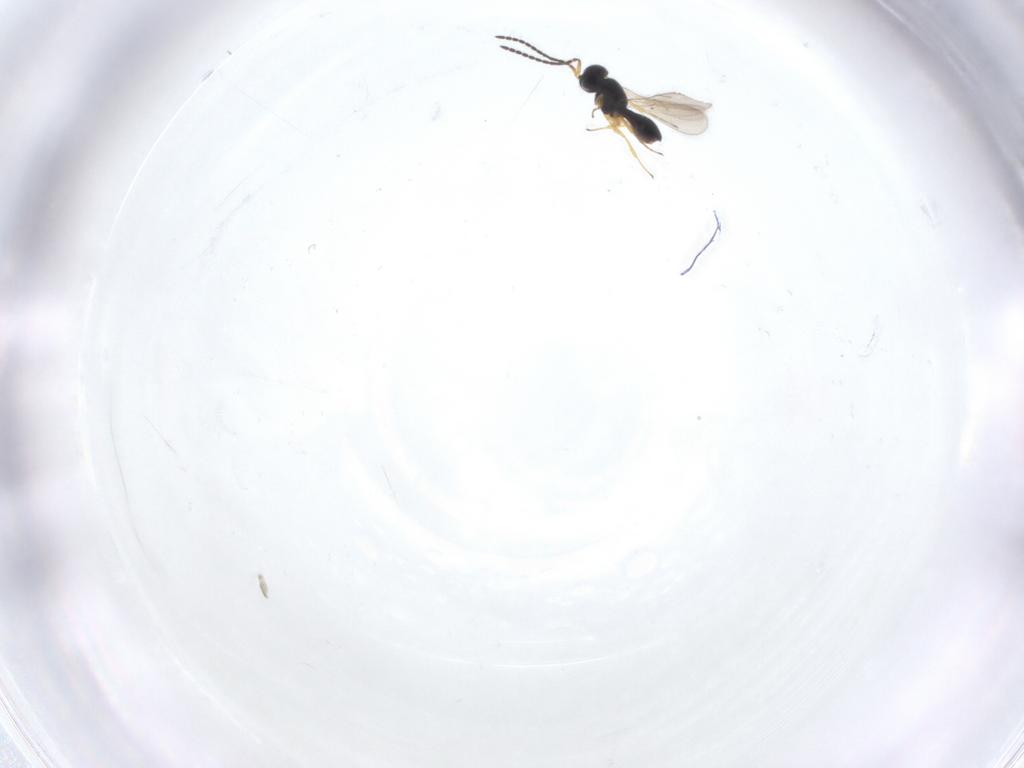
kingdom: Animalia
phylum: Arthropoda
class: Insecta
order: Hymenoptera
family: Scelionidae
